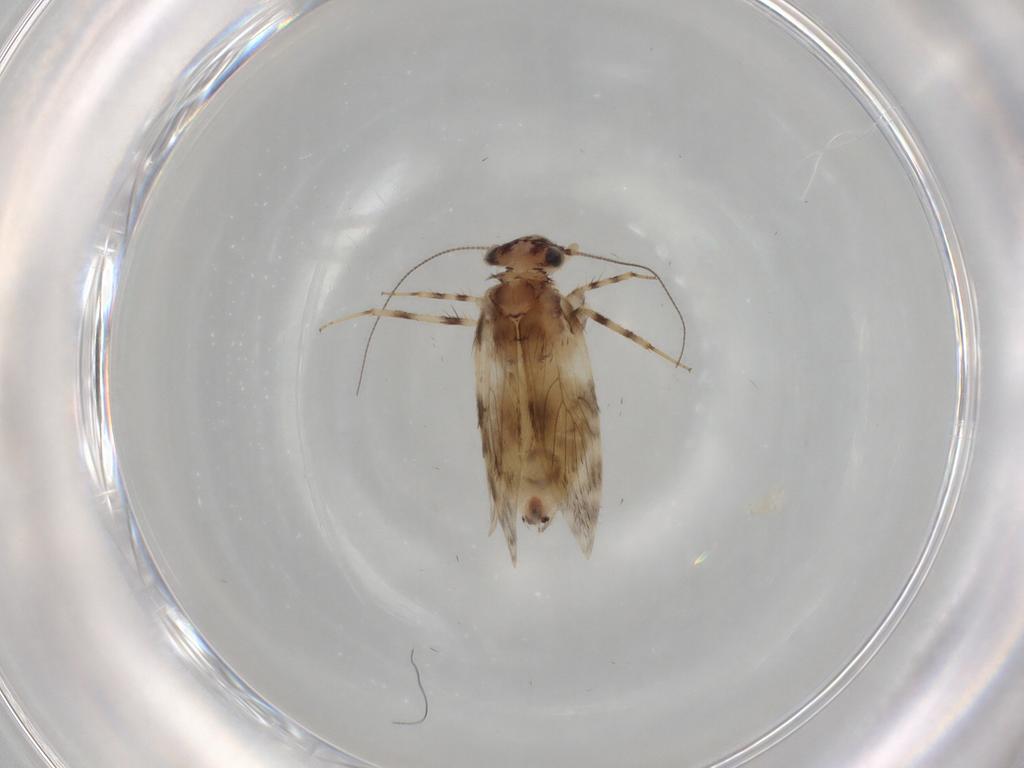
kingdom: Animalia
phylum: Arthropoda
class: Insecta
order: Psocodea
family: Lepidopsocidae
